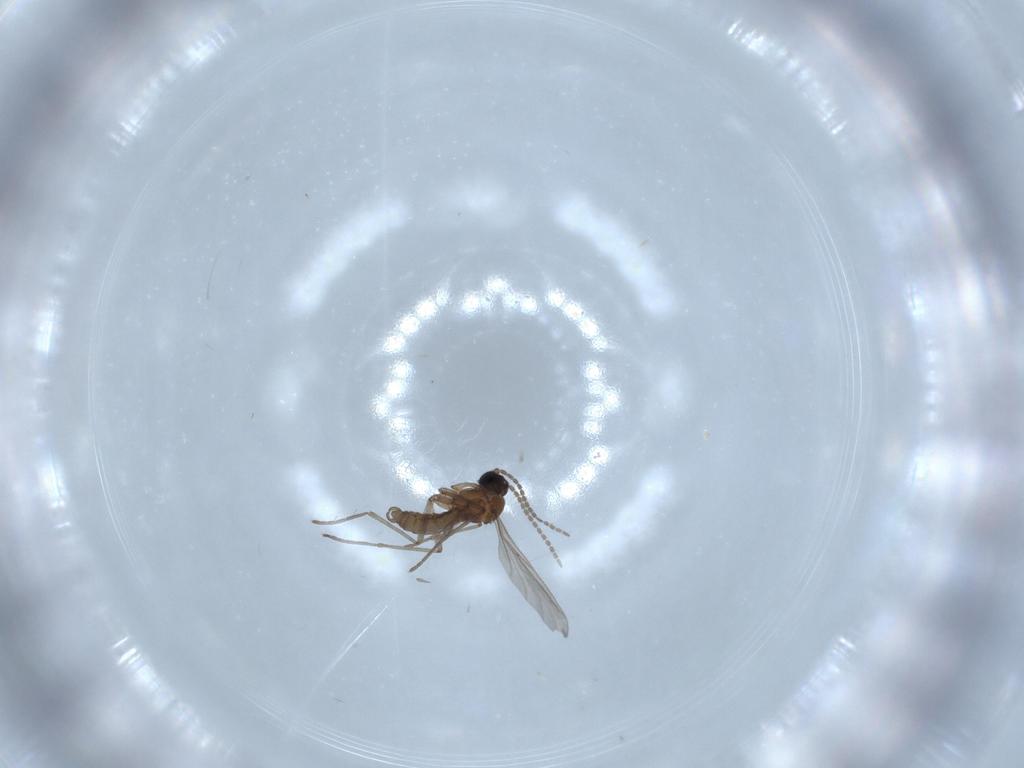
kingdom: Animalia
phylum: Arthropoda
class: Insecta
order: Diptera
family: Sciaridae
